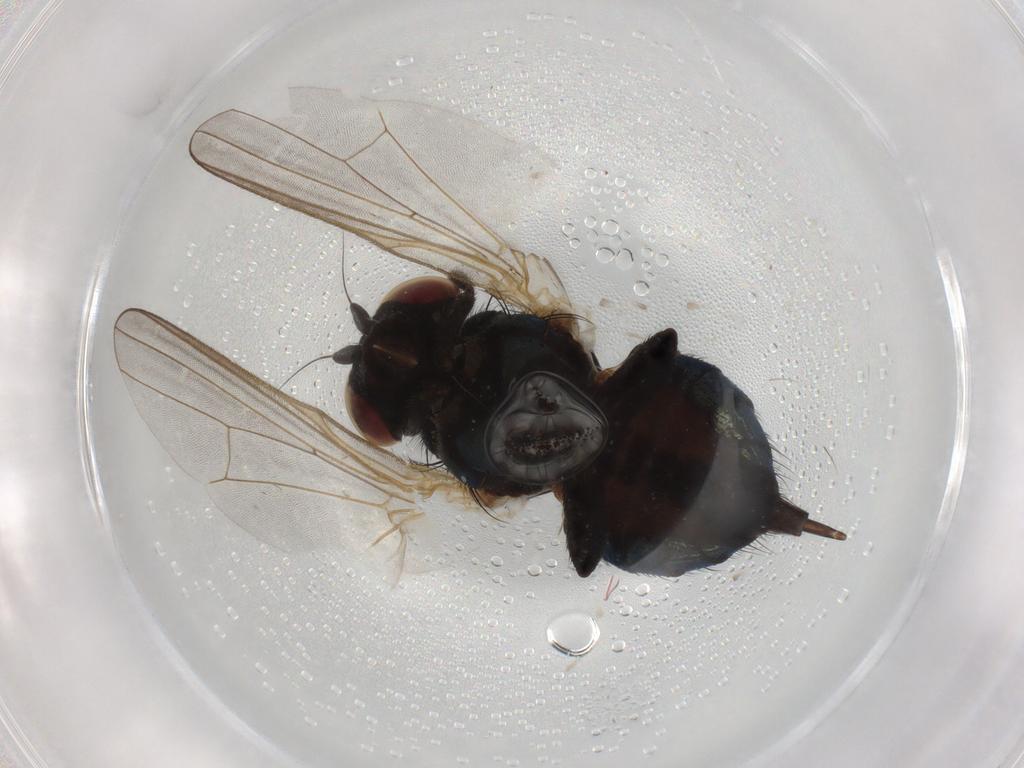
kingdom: Animalia
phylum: Arthropoda
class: Insecta
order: Diptera
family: Lonchaeidae
